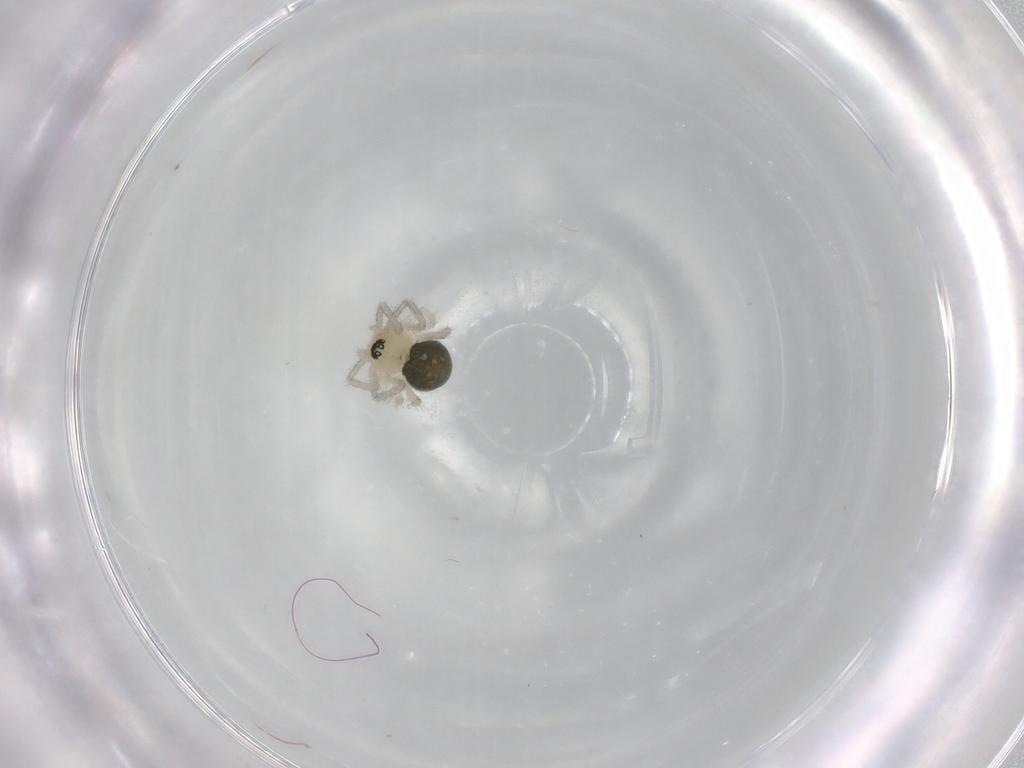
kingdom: Animalia
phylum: Arthropoda
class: Arachnida
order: Araneae
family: Linyphiidae
